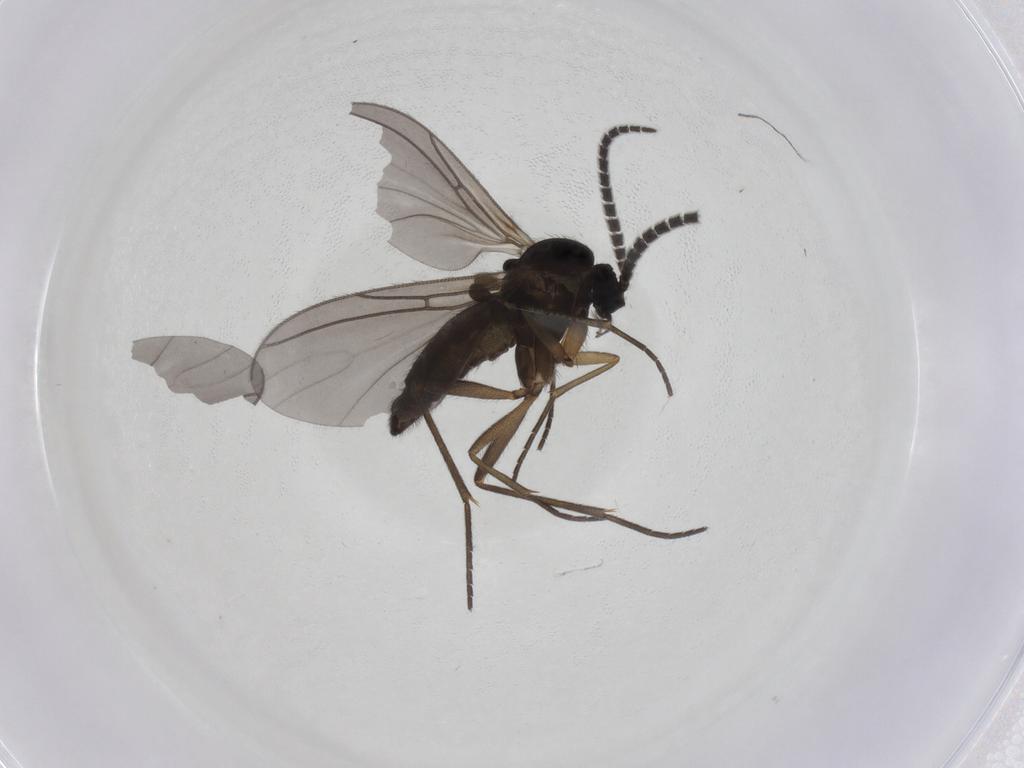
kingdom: Animalia
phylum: Arthropoda
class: Insecta
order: Diptera
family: Sciaridae
